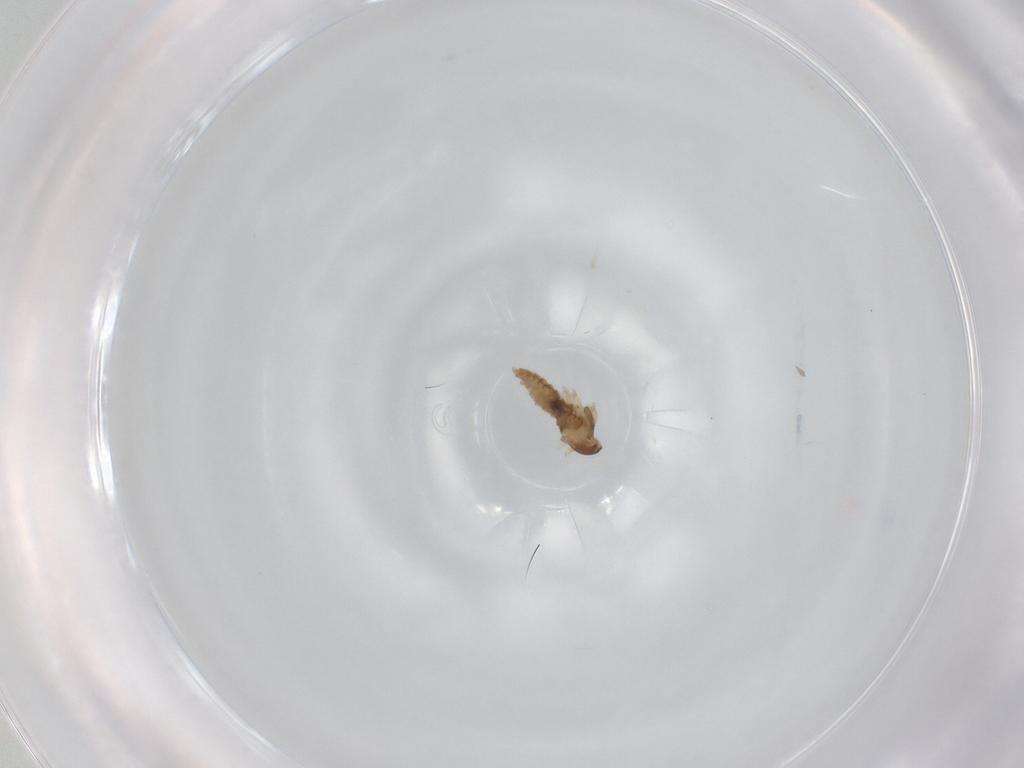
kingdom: Animalia
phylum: Arthropoda
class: Insecta
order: Diptera
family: Cecidomyiidae
